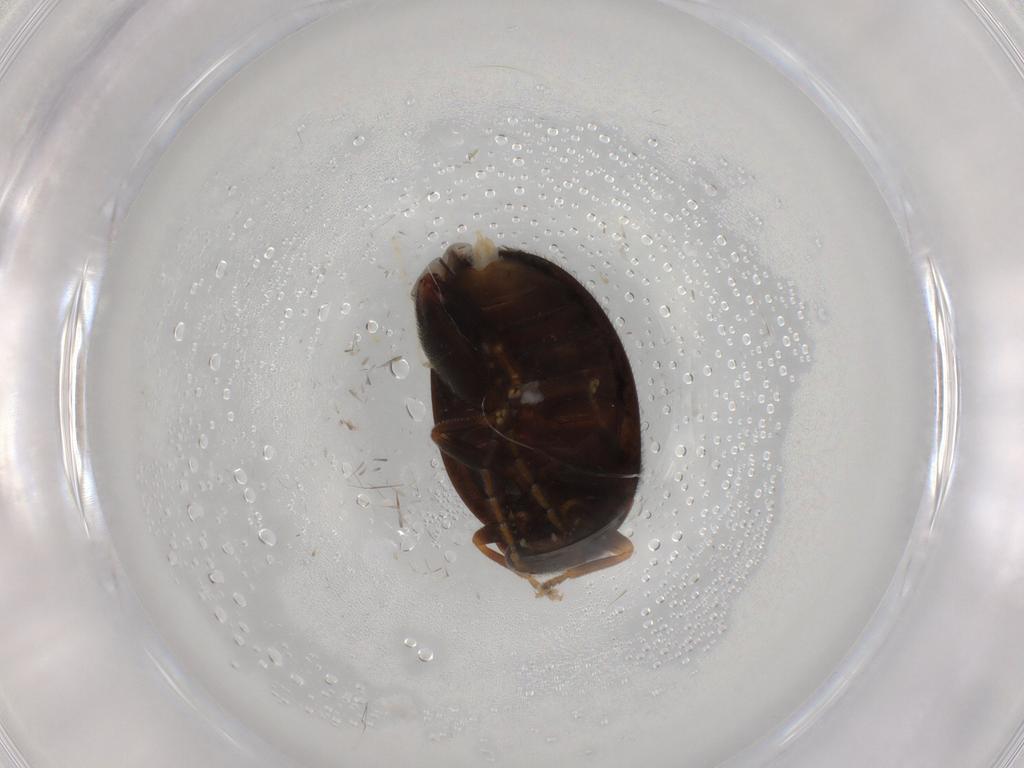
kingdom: Animalia
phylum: Arthropoda
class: Insecta
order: Coleoptera
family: Scirtidae
